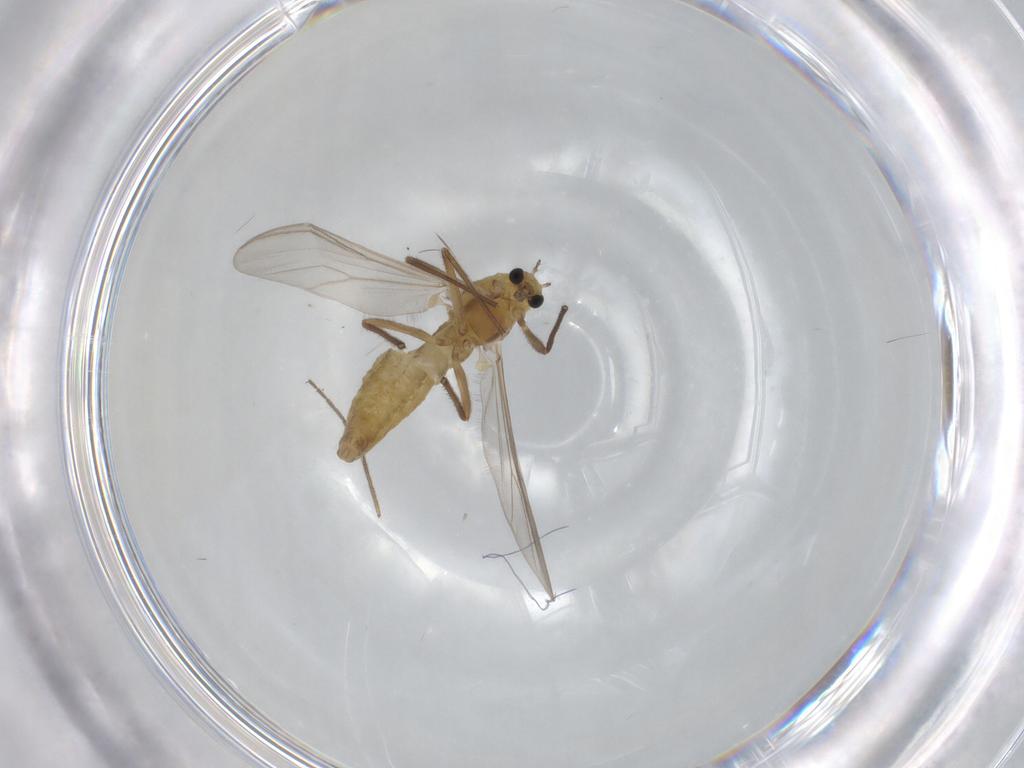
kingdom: Animalia
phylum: Arthropoda
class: Insecta
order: Diptera
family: Chironomidae
